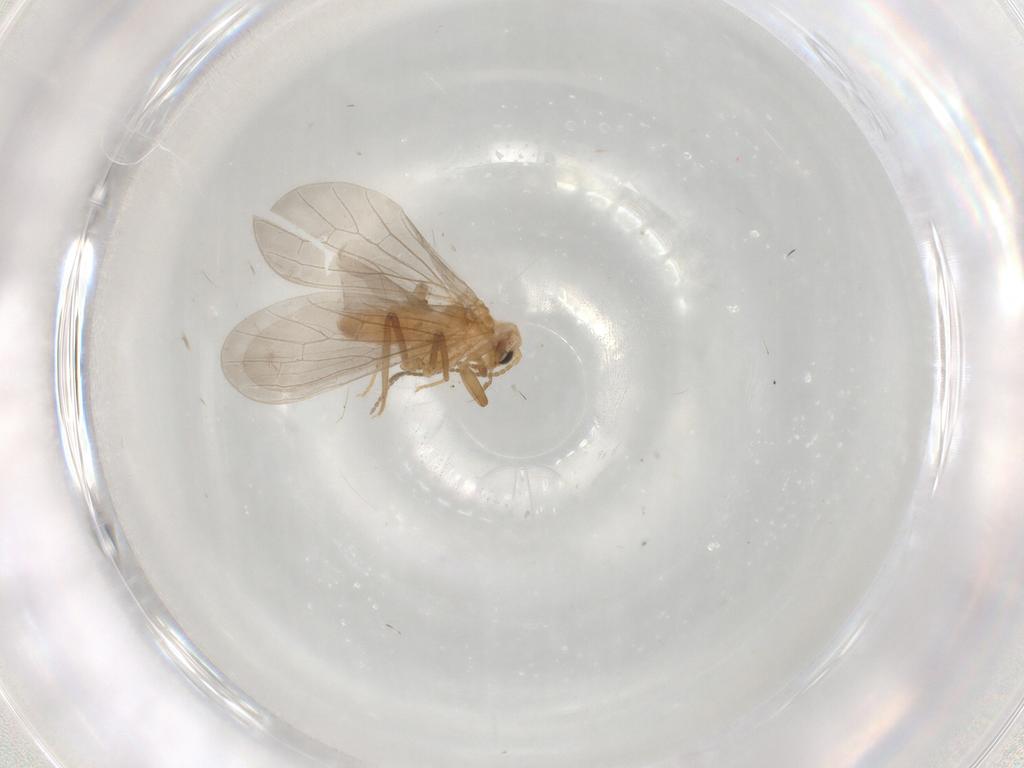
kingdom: Animalia
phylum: Arthropoda
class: Insecta
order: Neuroptera
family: Coniopterygidae
